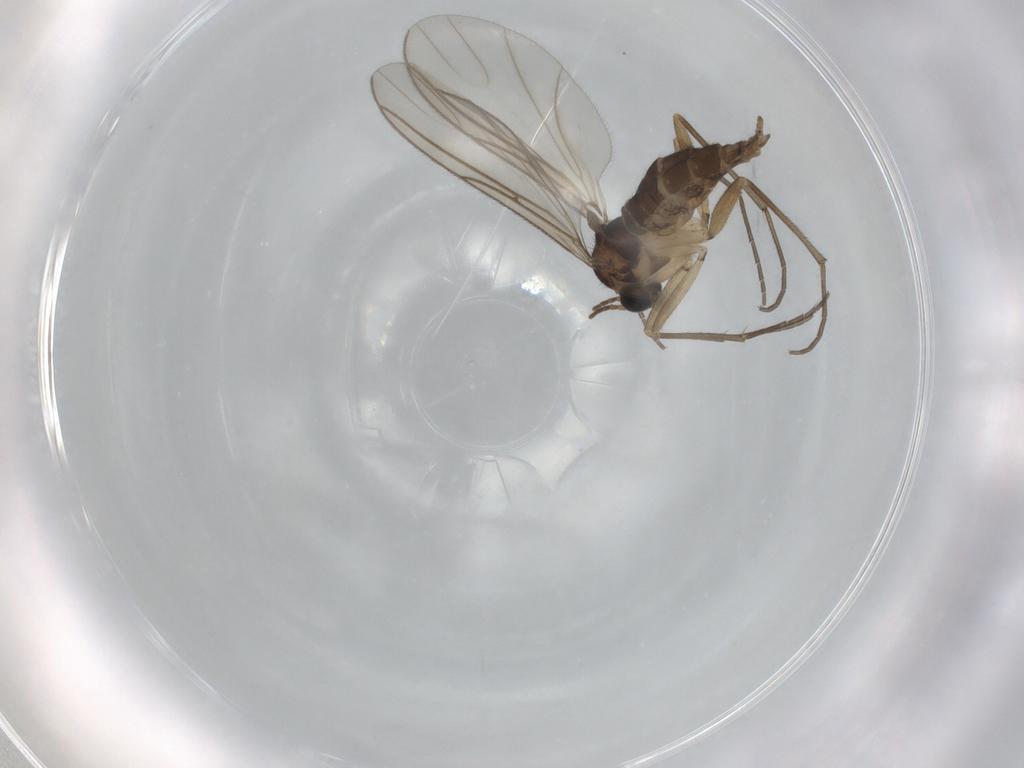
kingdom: Animalia
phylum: Arthropoda
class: Insecta
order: Diptera
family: Sciaridae
